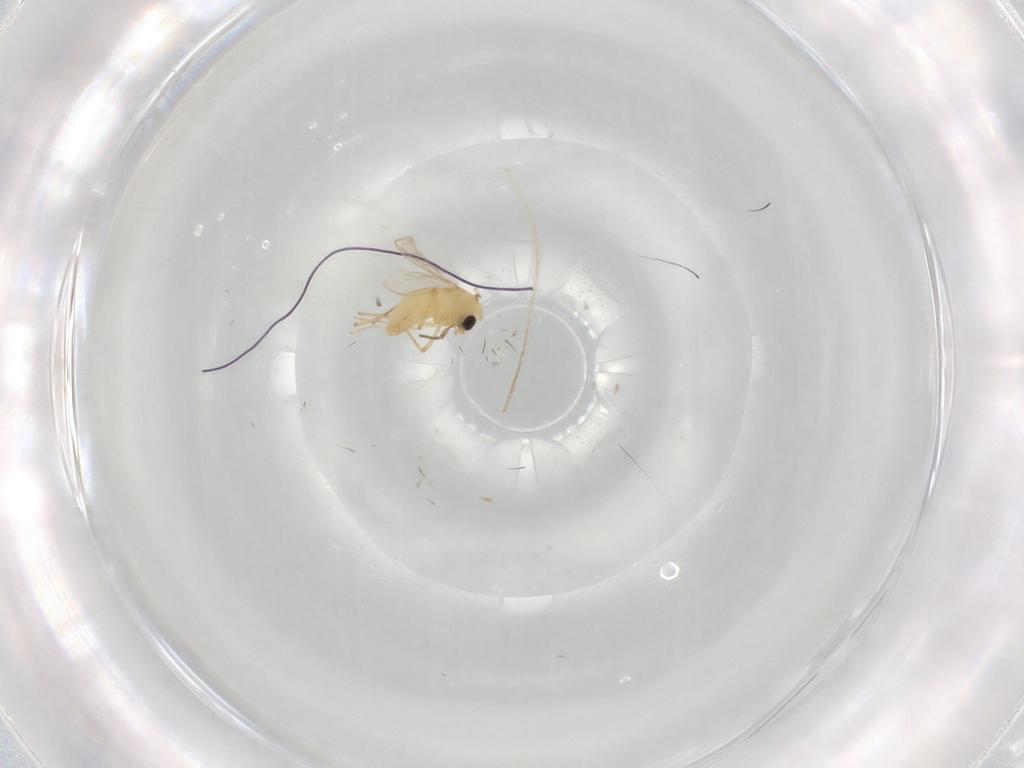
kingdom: Animalia
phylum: Arthropoda
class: Insecta
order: Diptera
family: Chironomidae
